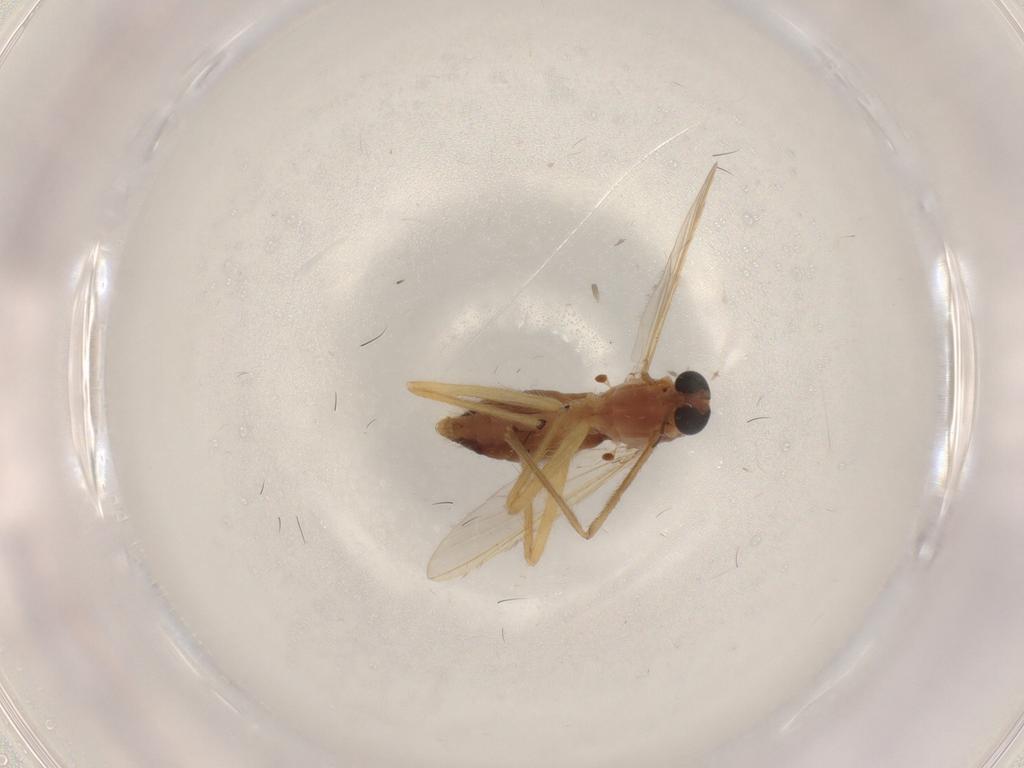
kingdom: Animalia
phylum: Arthropoda
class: Insecta
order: Diptera
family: Chironomidae
